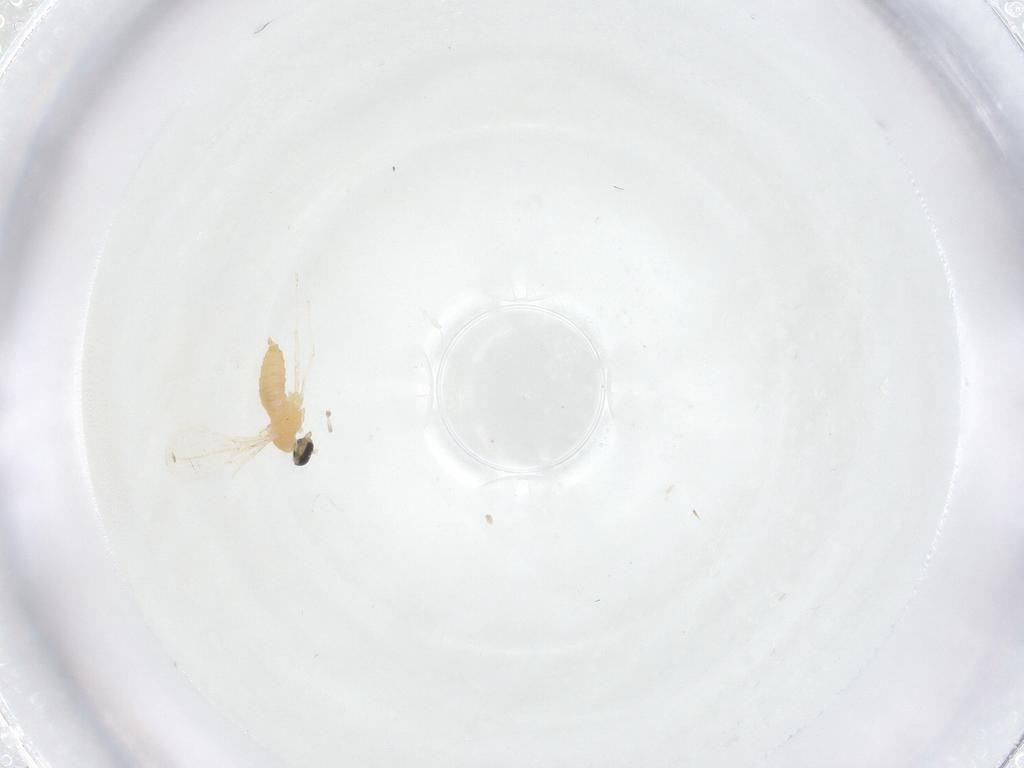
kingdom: Animalia
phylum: Arthropoda
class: Insecta
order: Diptera
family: Cecidomyiidae
